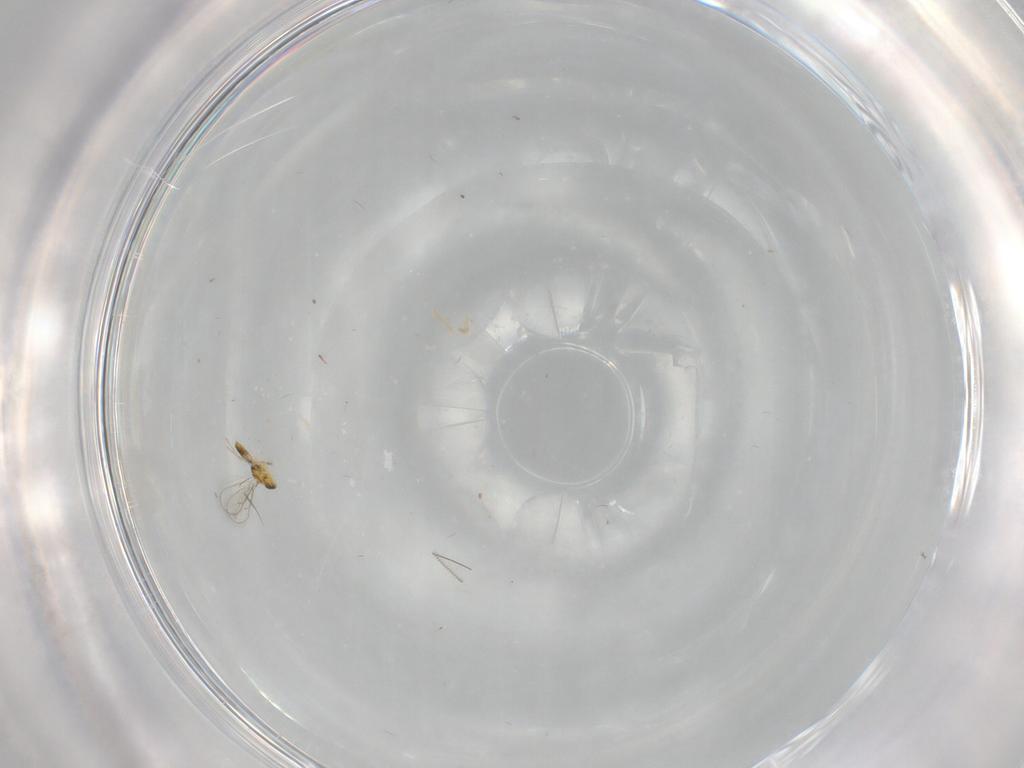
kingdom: Animalia
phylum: Arthropoda
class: Insecta
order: Hymenoptera
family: Eulophidae
